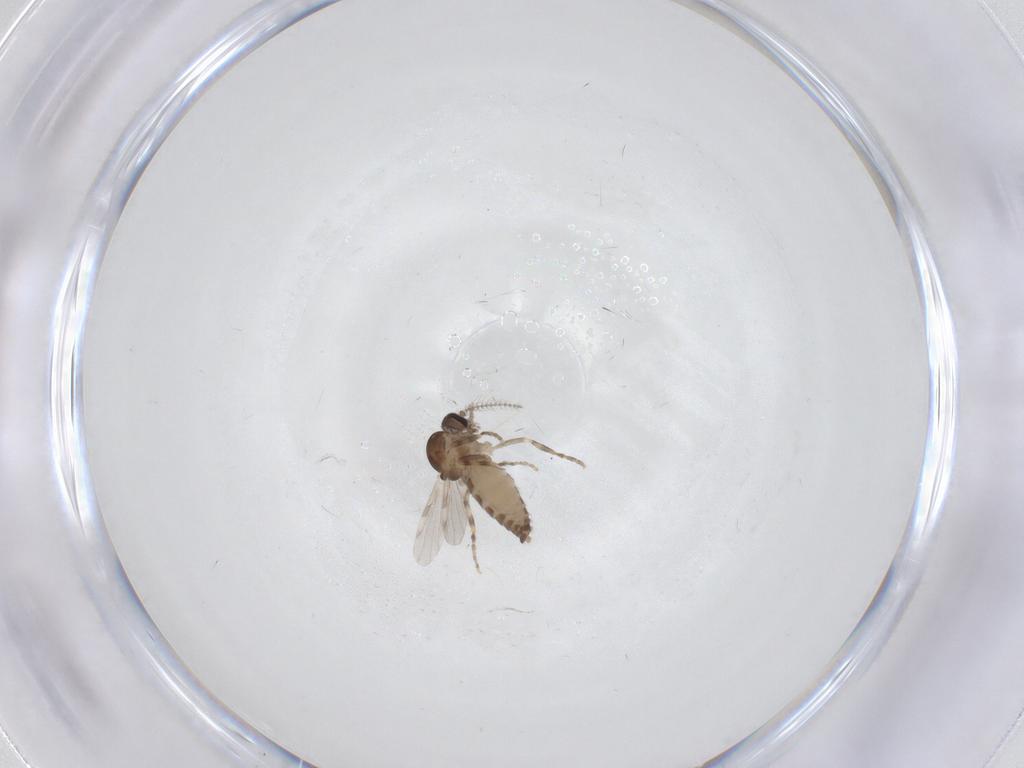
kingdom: Animalia
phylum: Arthropoda
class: Insecta
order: Diptera
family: Ceratopogonidae
